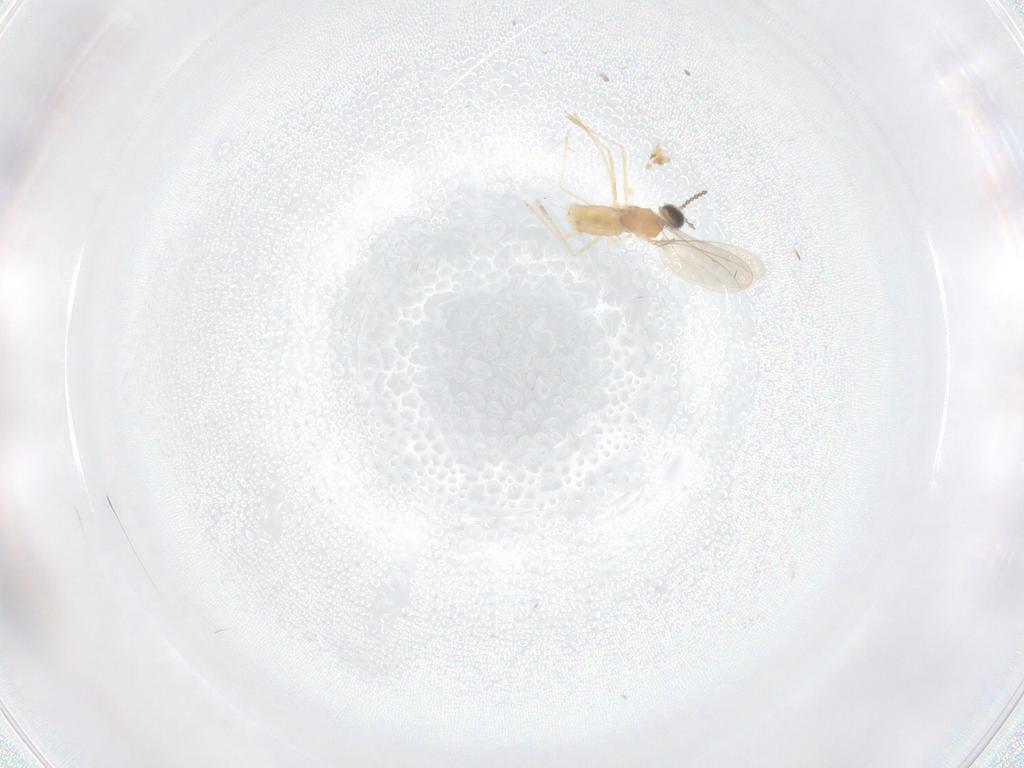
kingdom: Animalia
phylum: Arthropoda
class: Insecta
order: Diptera
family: Cecidomyiidae
